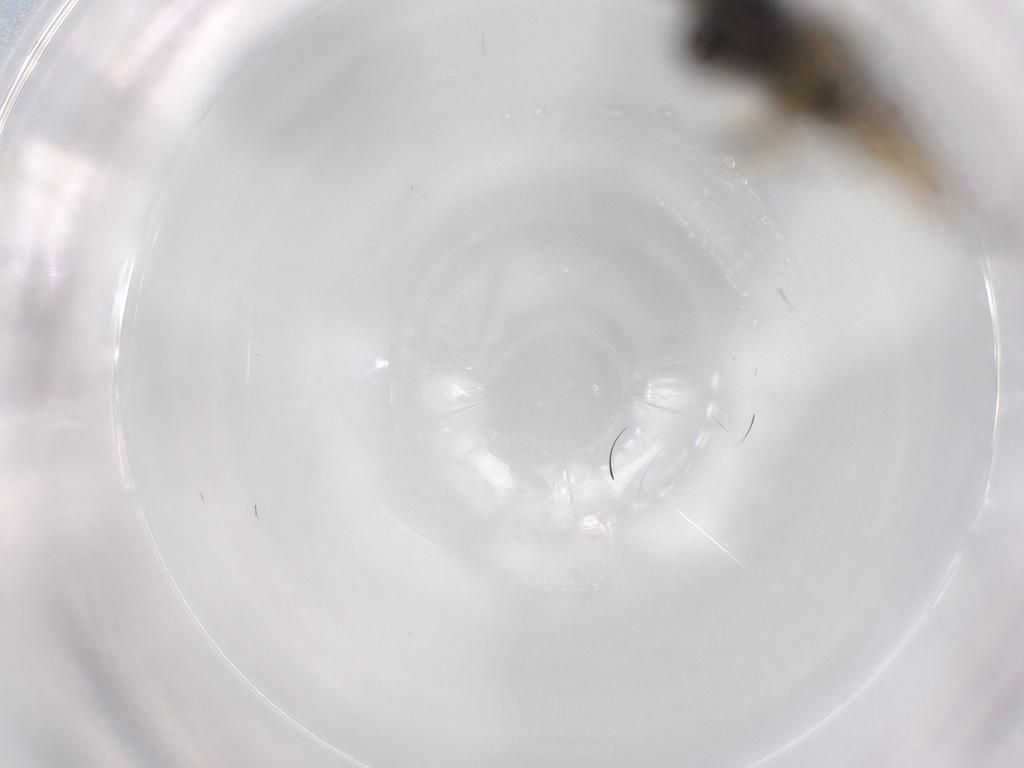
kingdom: Animalia
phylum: Arthropoda
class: Insecta
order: Diptera
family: Dolichopodidae
